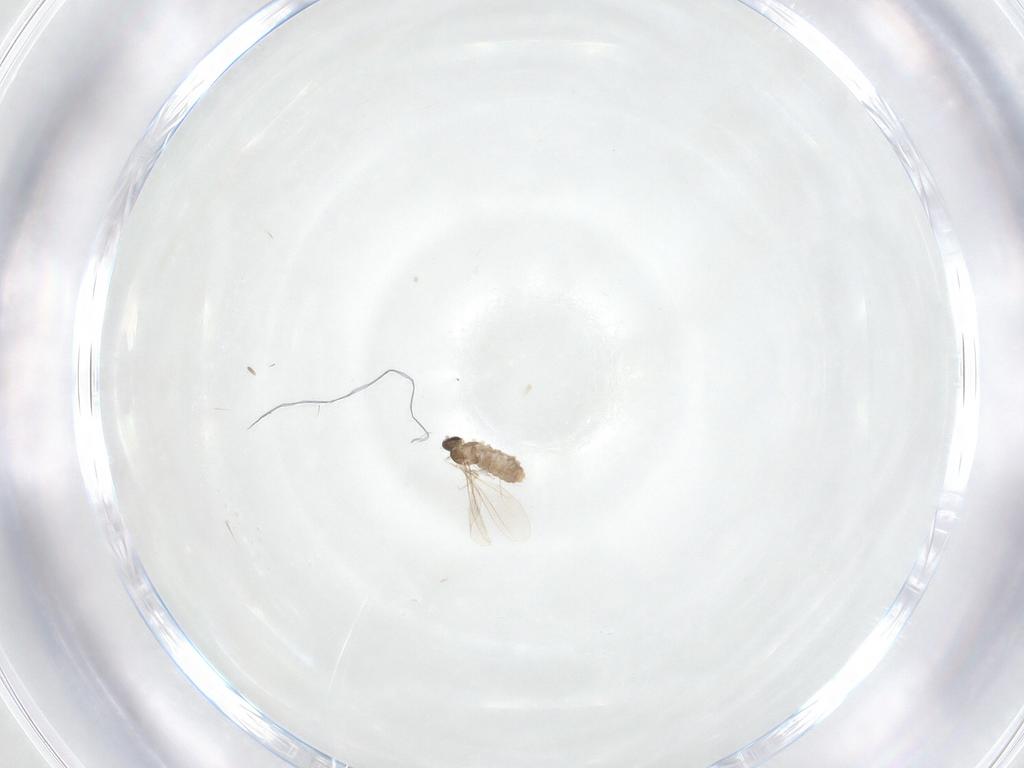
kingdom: Animalia
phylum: Arthropoda
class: Insecta
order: Diptera
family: Cecidomyiidae
